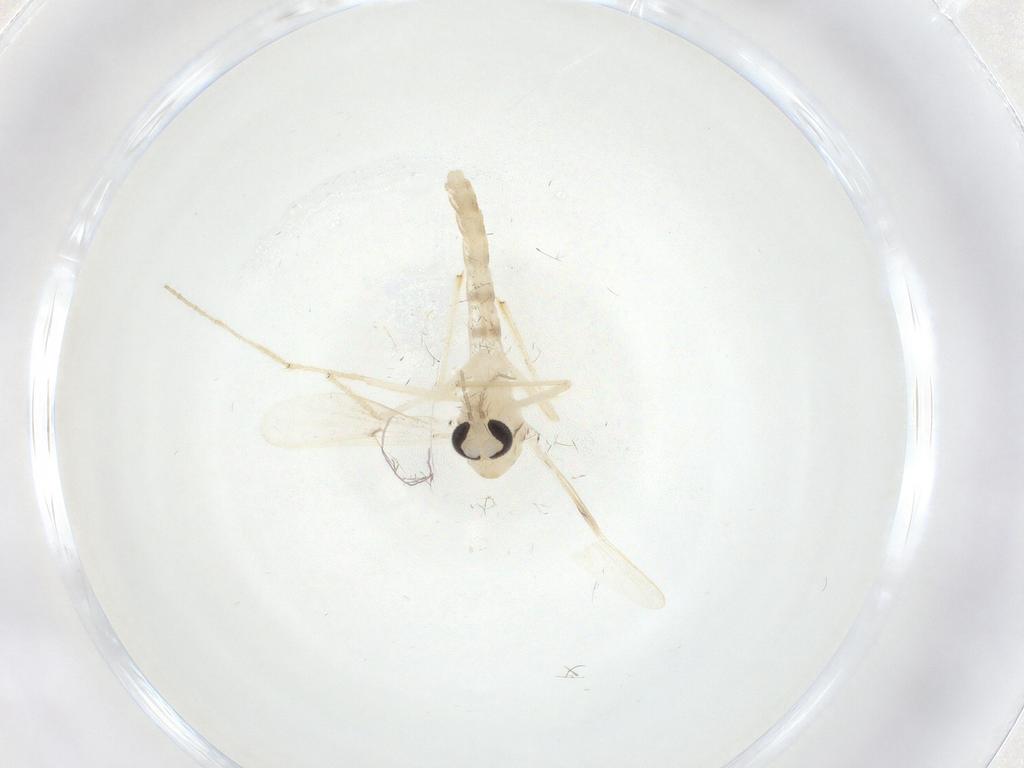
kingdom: Animalia
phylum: Arthropoda
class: Insecta
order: Diptera
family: Chironomidae
